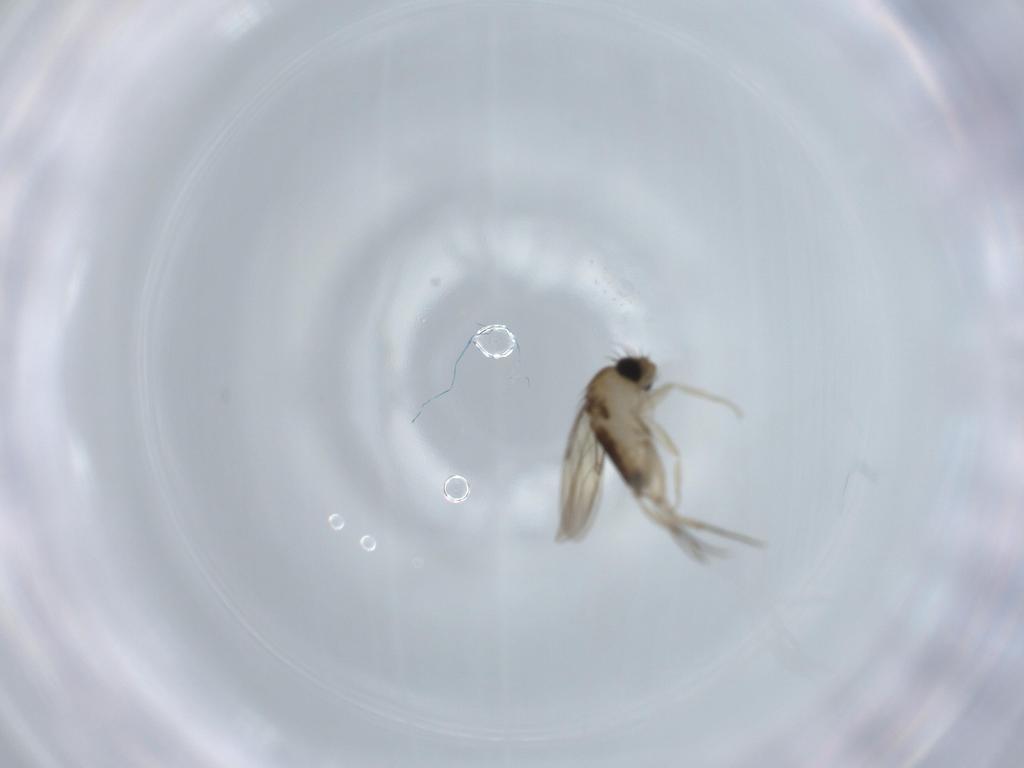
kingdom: Animalia
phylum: Arthropoda
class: Insecta
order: Diptera
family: Phoridae
